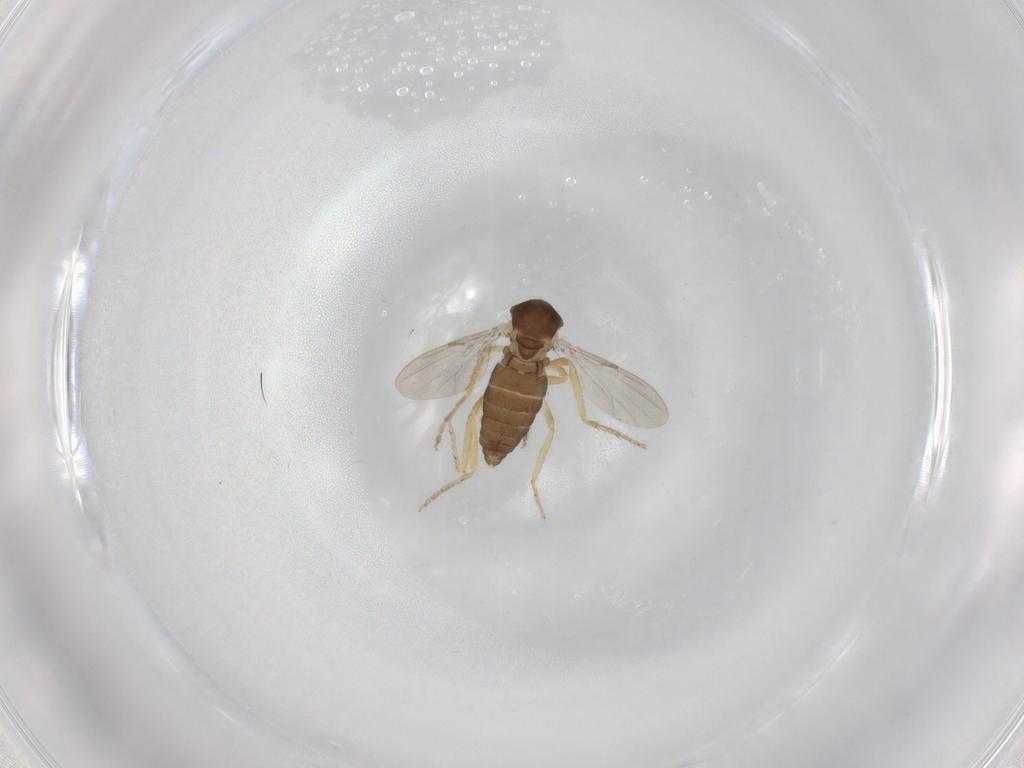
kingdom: Animalia
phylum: Arthropoda
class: Insecta
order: Diptera
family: Ceratopogonidae
